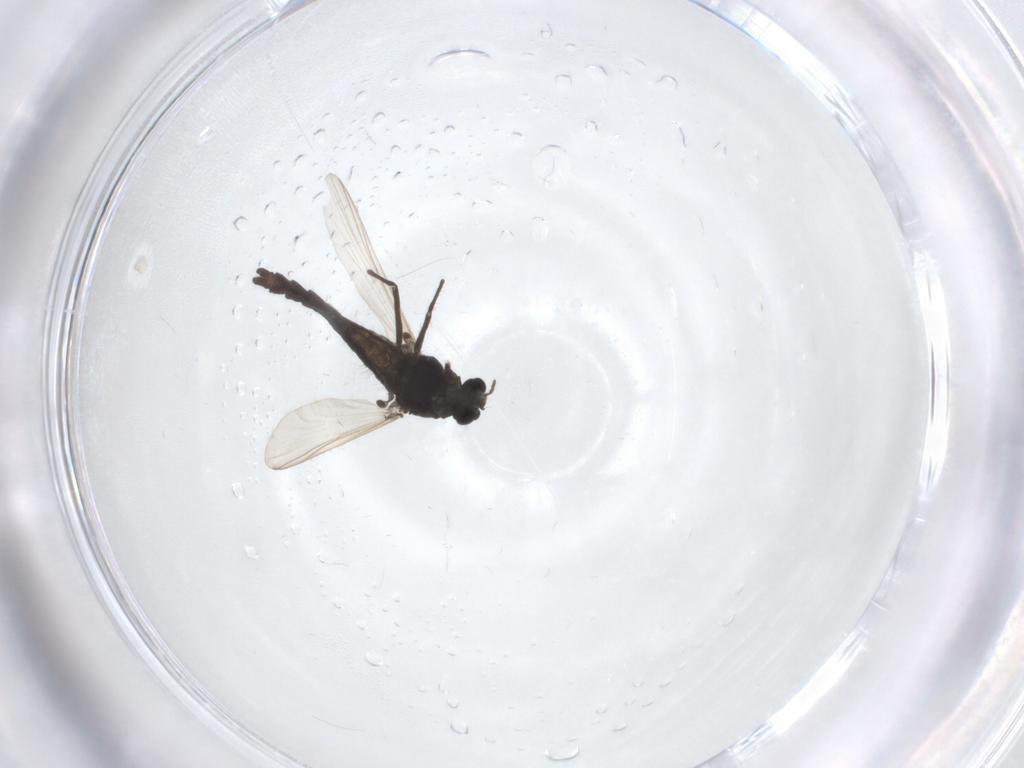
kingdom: Animalia
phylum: Arthropoda
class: Insecta
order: Diptera
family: Chironomidae
